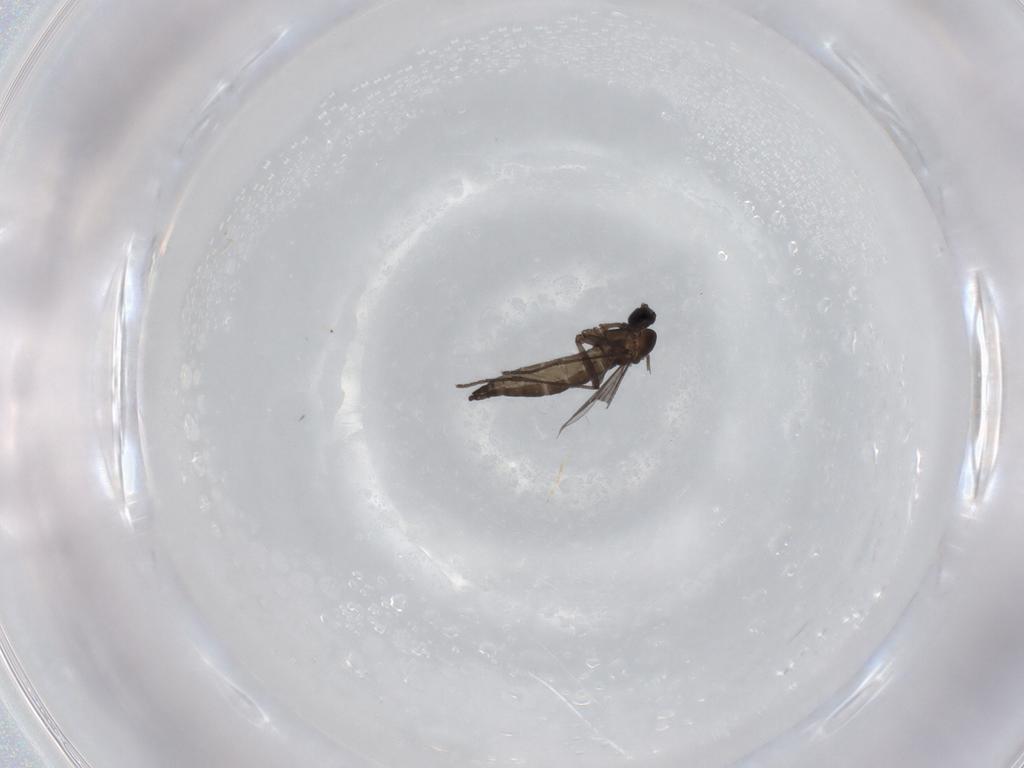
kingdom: Animalia
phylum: Arthropoda
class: Insecta
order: Diptera
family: Sciaridae
